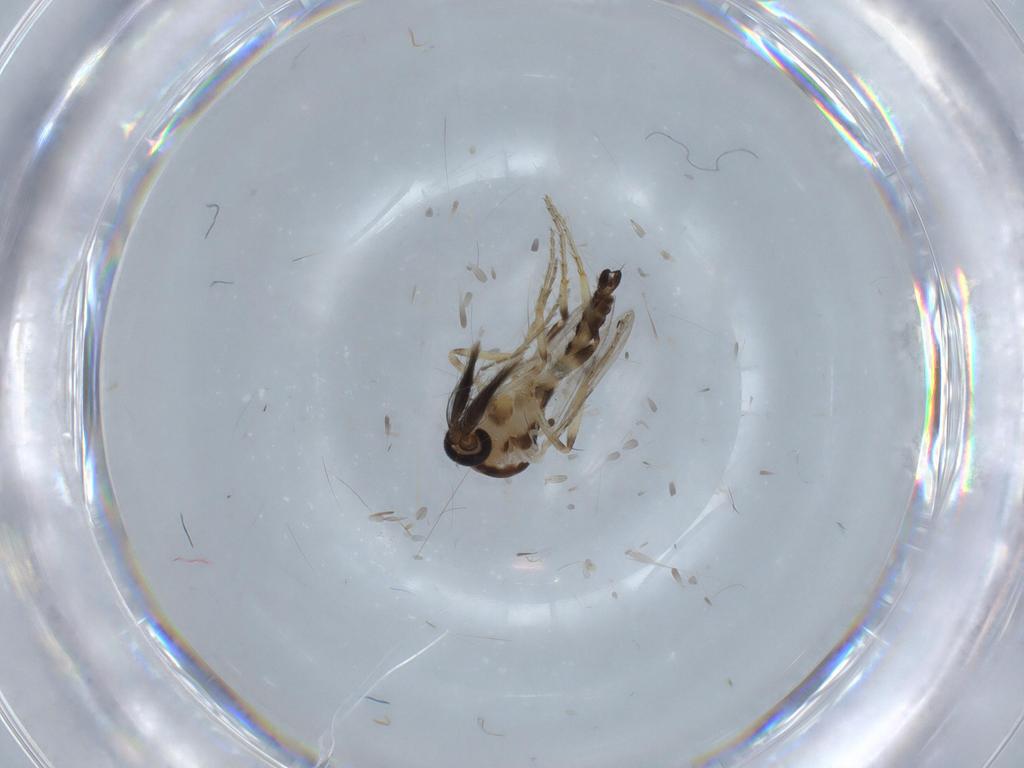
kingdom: Animalia
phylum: Arthropoda
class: Insecta
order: Diptera
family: Ceratopogonidae
